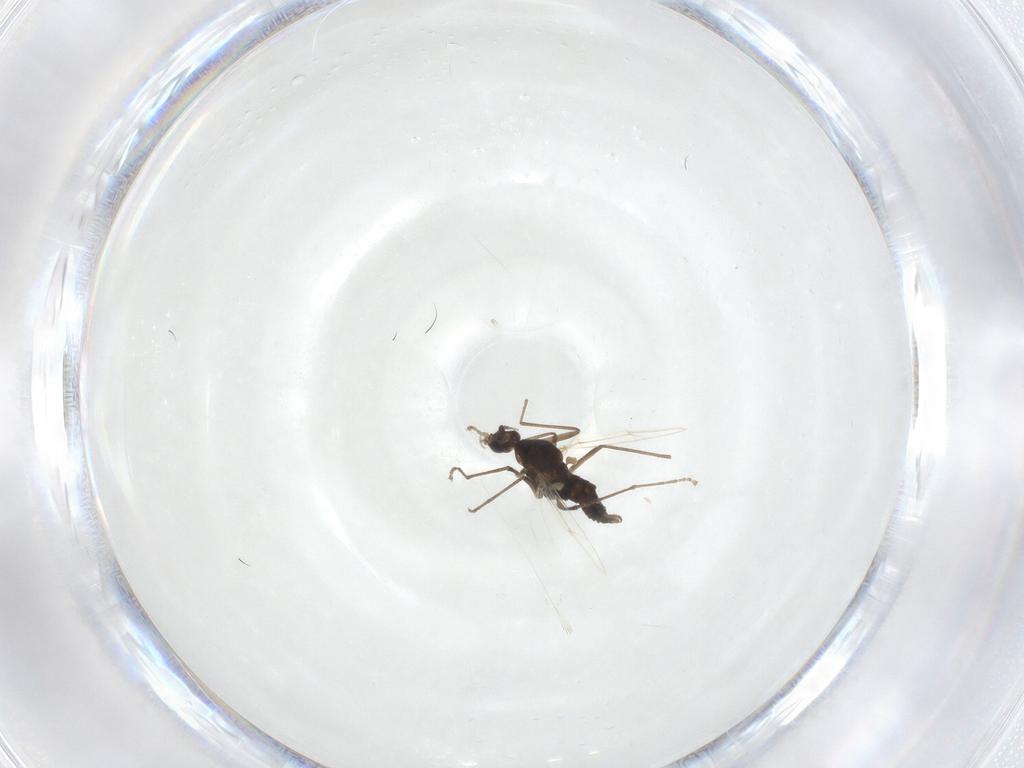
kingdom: Animalia
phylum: Arthropoda
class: Insecta
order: Diptera
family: Cecidomyiidae
